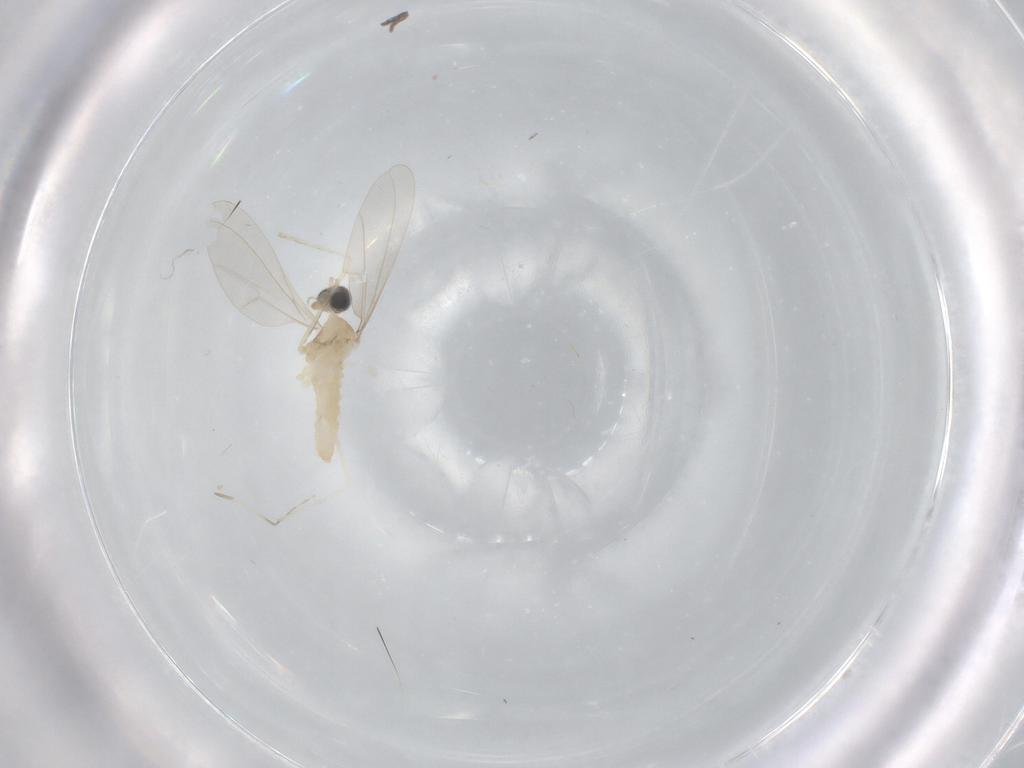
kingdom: Animalia
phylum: Arthropoda
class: Insecta
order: Diptera
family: Cecidomyiidae
